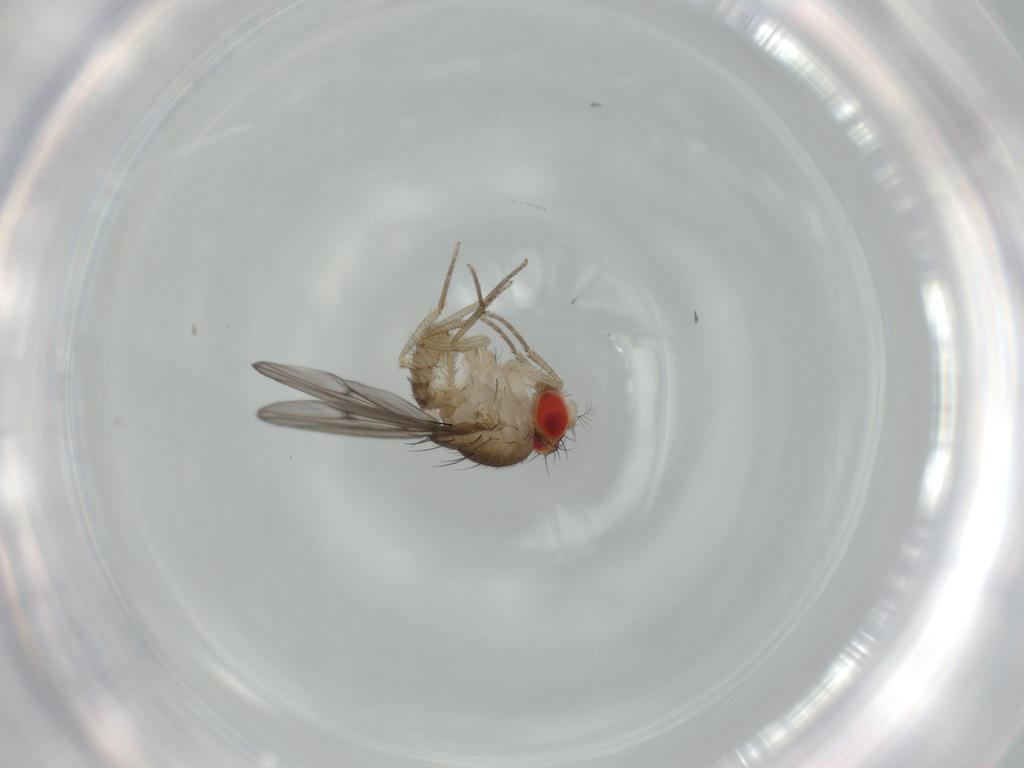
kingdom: Animalia
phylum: Arthropoda
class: Insecta
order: Diptera
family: Drosophilidae
